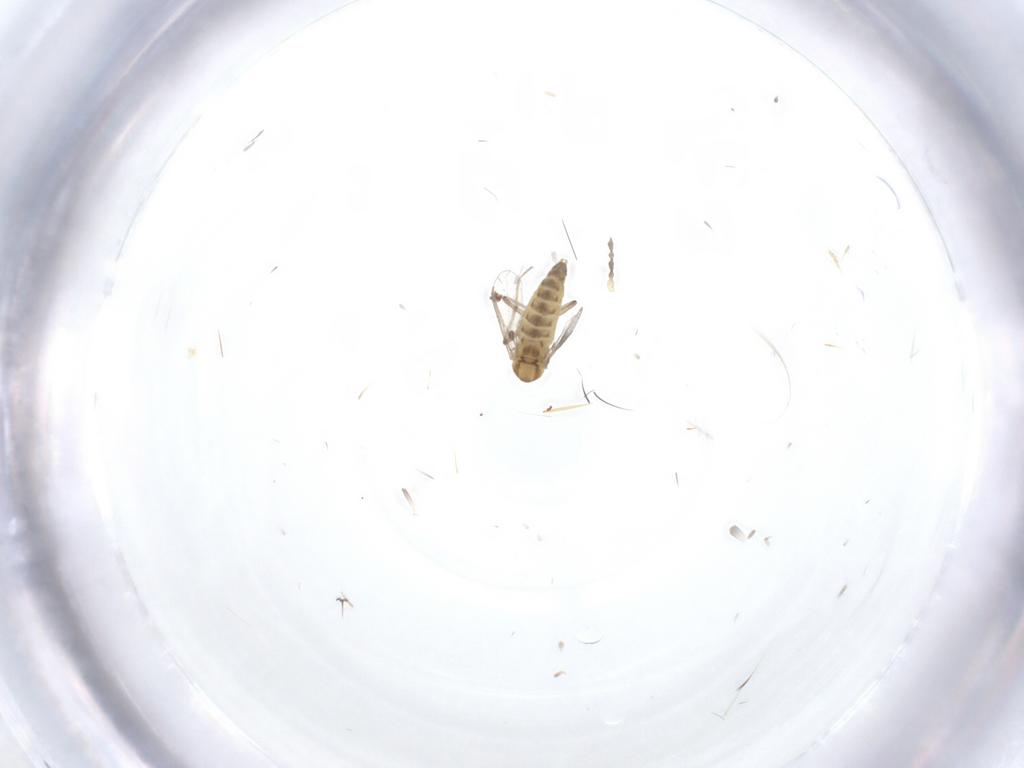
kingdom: Animalia
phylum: Arthropoda
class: Insecta
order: Diptera
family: Chironomidae
